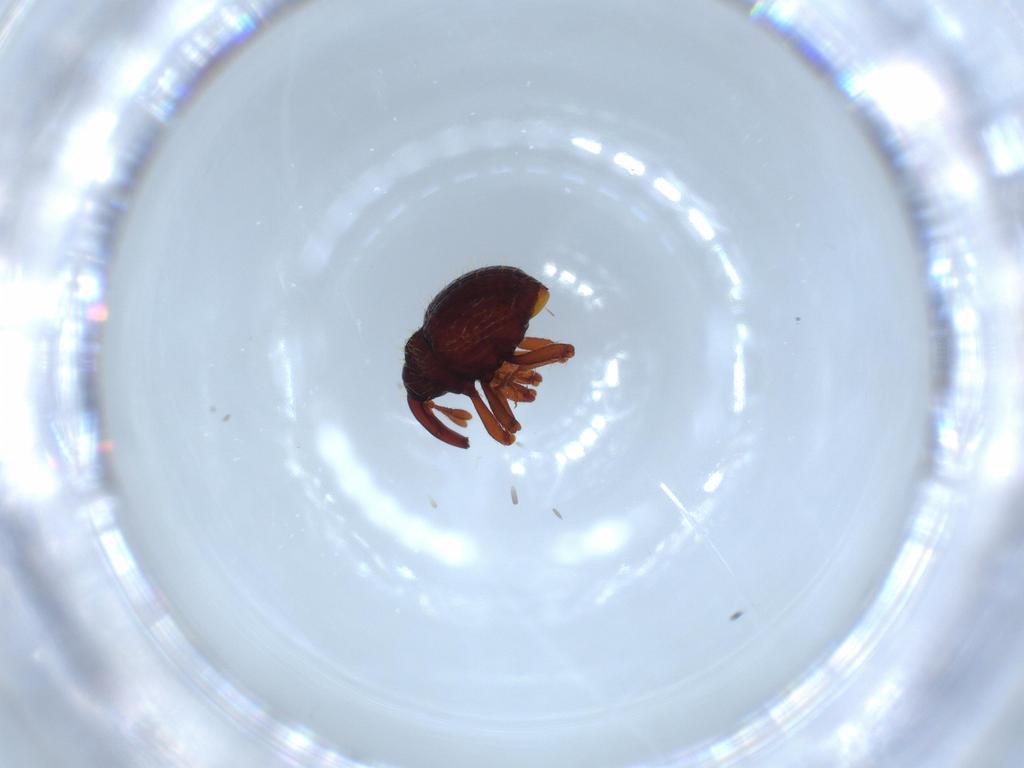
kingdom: Animalia
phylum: Arthropoda
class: Insecta
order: Coleoptera
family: Curculionidae
